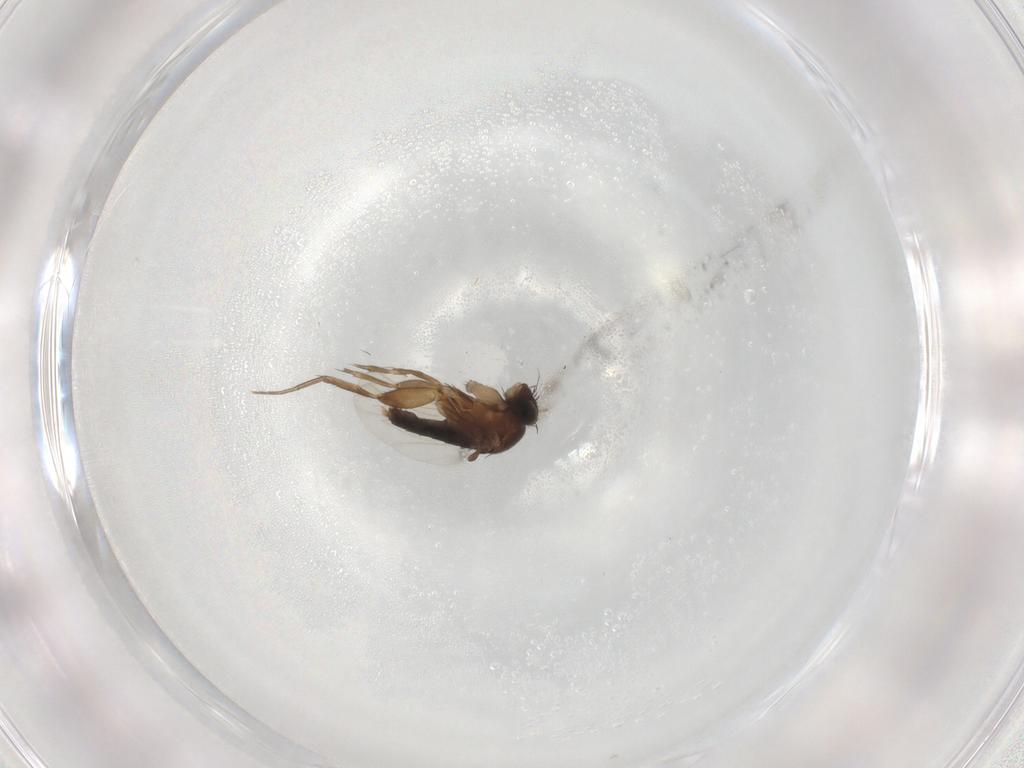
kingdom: Animalia
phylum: Arthropoda
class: Insecta
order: Diptera
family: Phoridae
